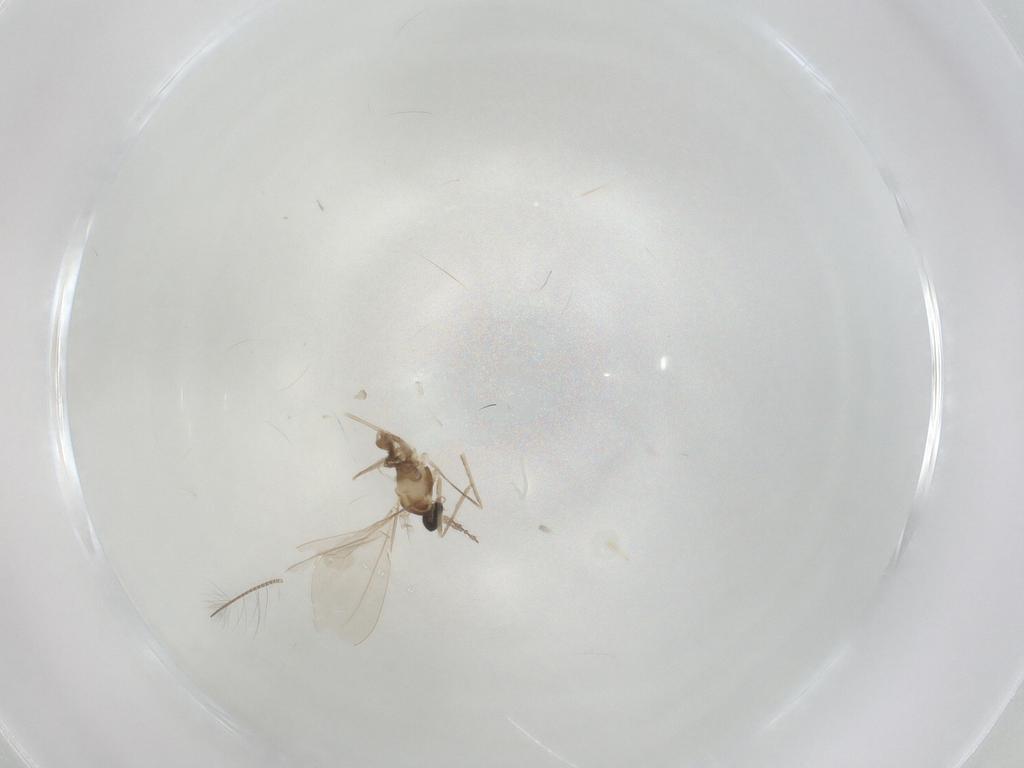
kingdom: Animalia
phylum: Arthropoda
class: Insecta
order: Diptera
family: Cecidomyiidae
